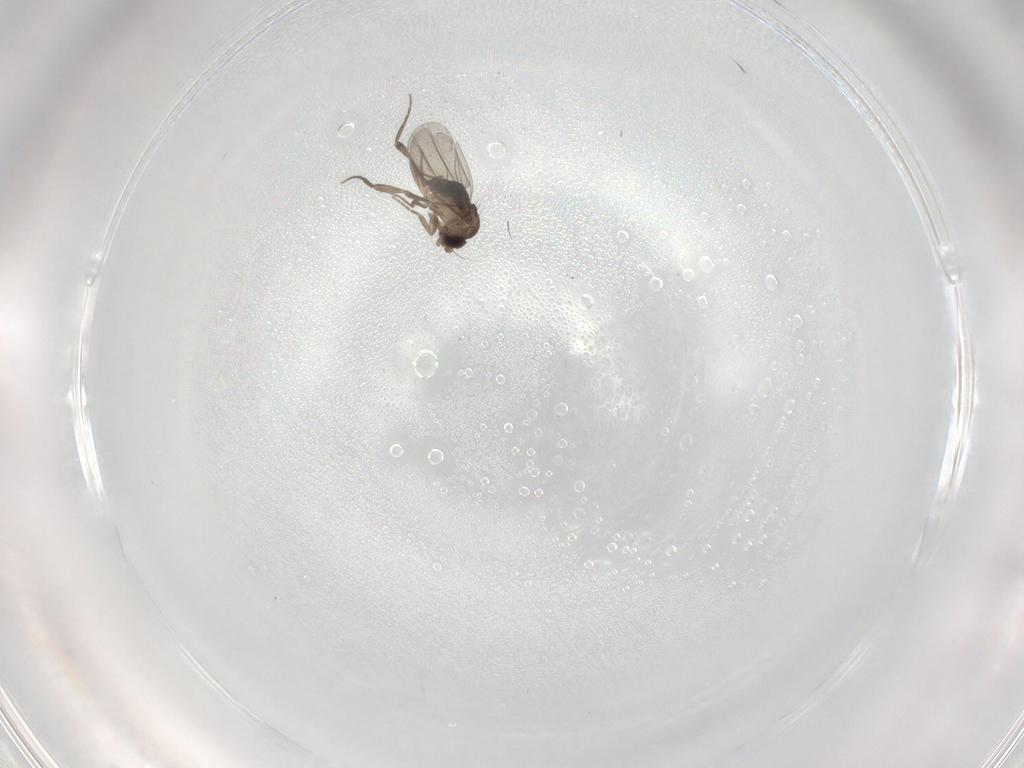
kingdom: Animalia
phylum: Arthropoda
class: Insecta
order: Diptera
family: Phoridae
